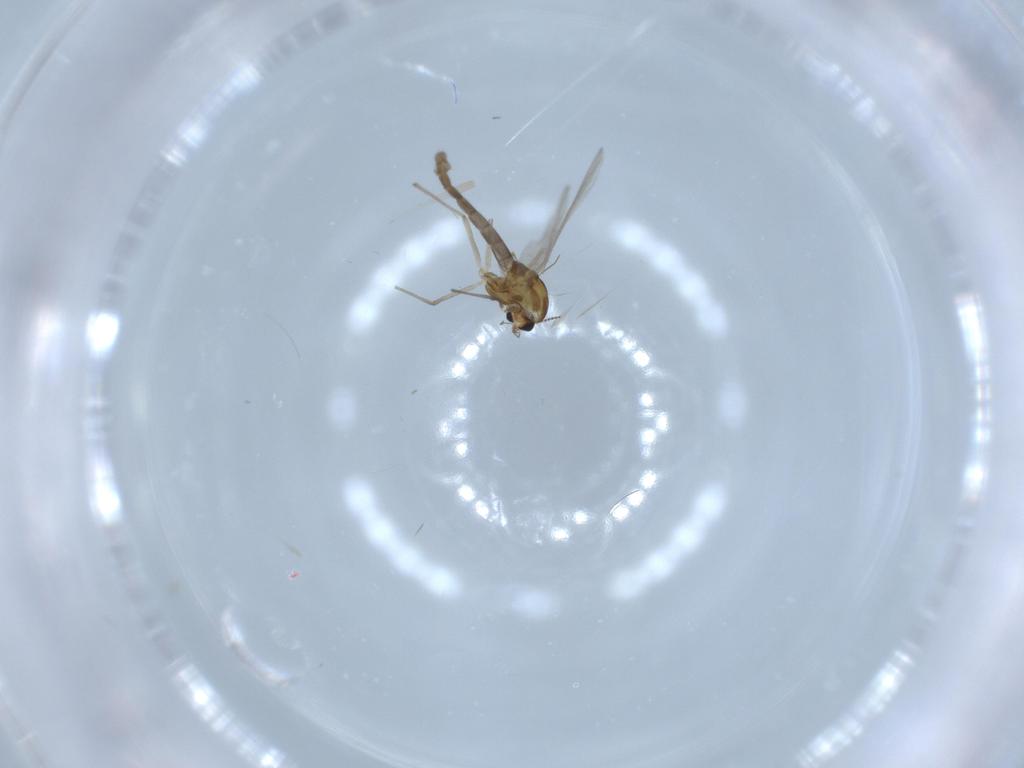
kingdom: Animalia
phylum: Arthropoda
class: Insecta
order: Diptera
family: Chironomidae
